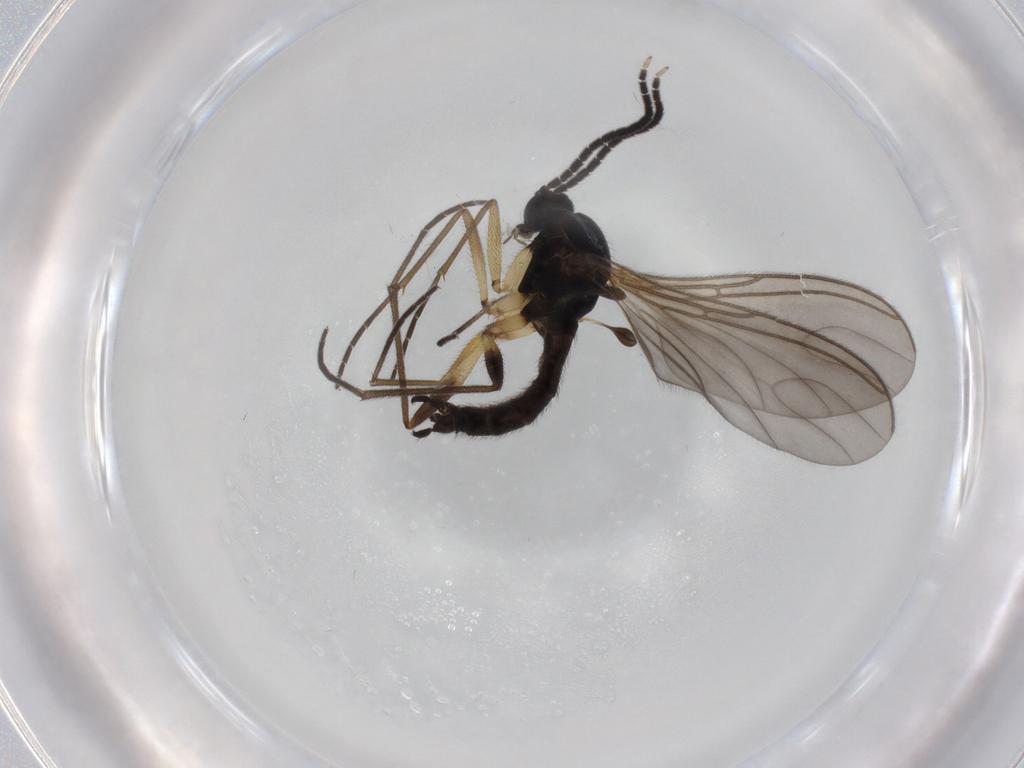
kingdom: Animalia
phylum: Arthropoda
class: Insecta
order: Diptera
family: Sciaridae
